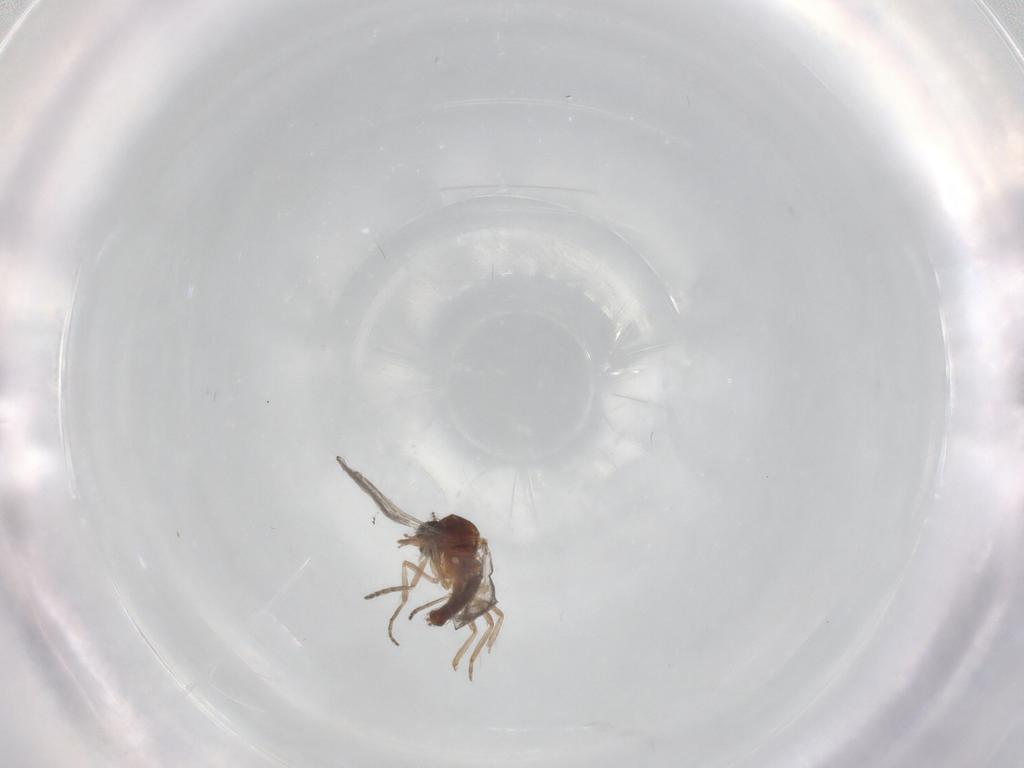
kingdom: Animalia
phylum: Arthropoda
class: Insecta
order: Diptera
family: Ceratopogonidae
